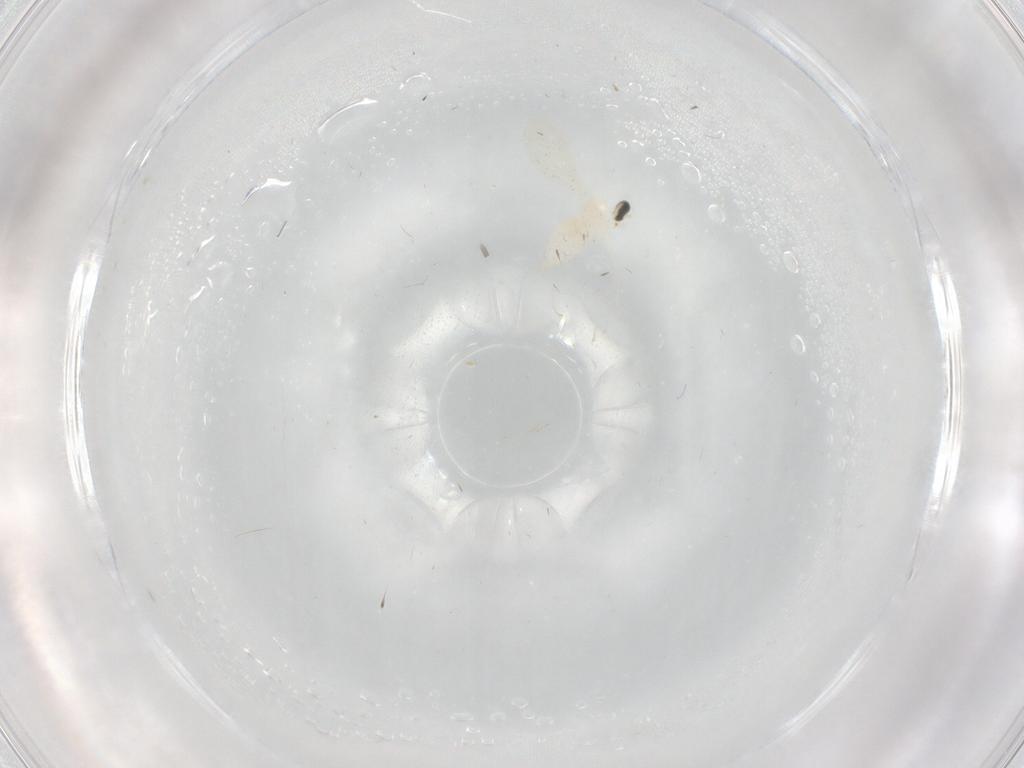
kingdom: Animalia
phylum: Arthropoda
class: Insecta
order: Diptera
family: Cecidomyiidae
